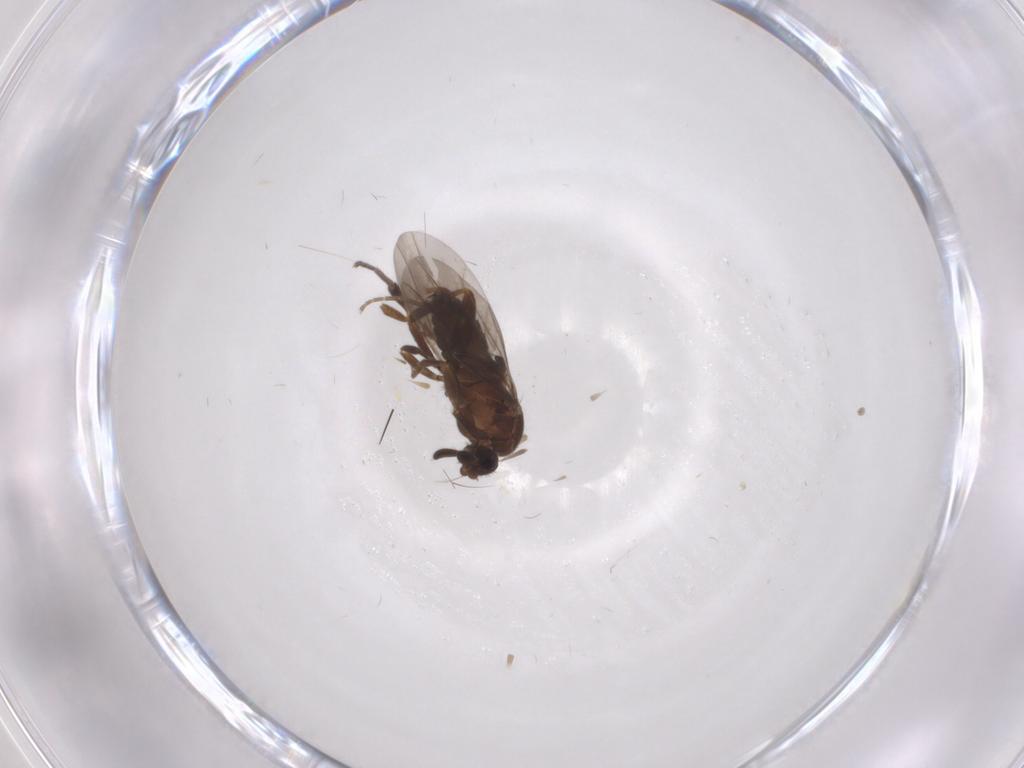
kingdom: Animalia
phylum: Arthropoda
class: Insecta
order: Diptera
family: Phoridae
